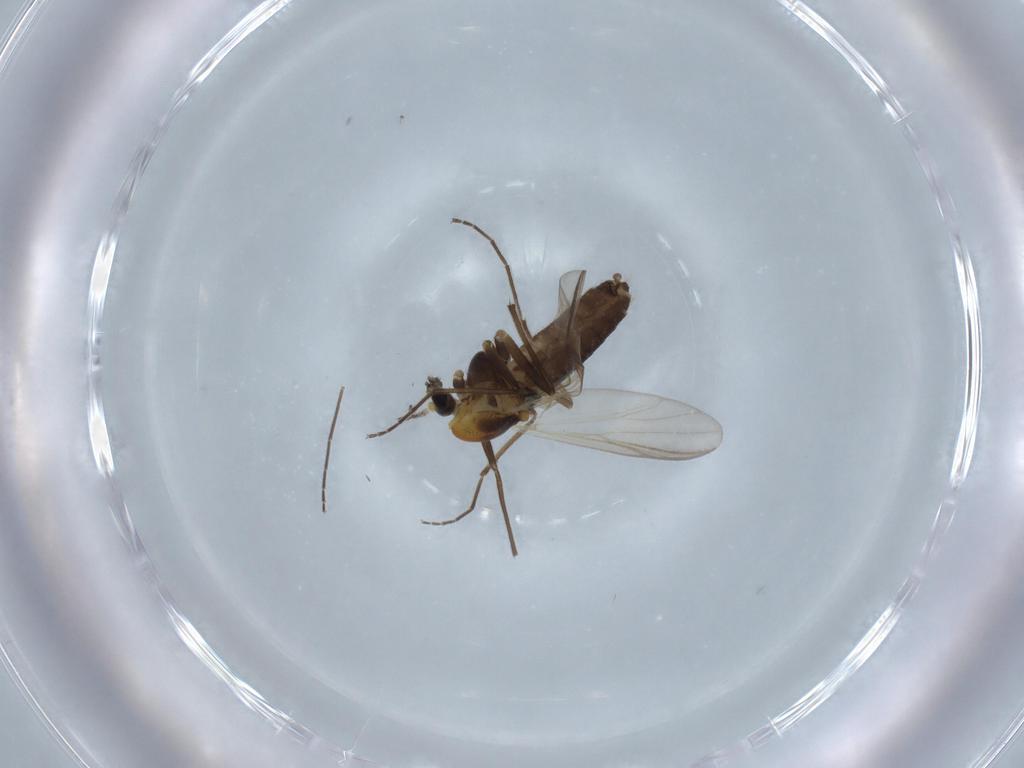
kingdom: Animalia
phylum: Arthropoda
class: Insecta
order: Diptera
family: Chironomidae
